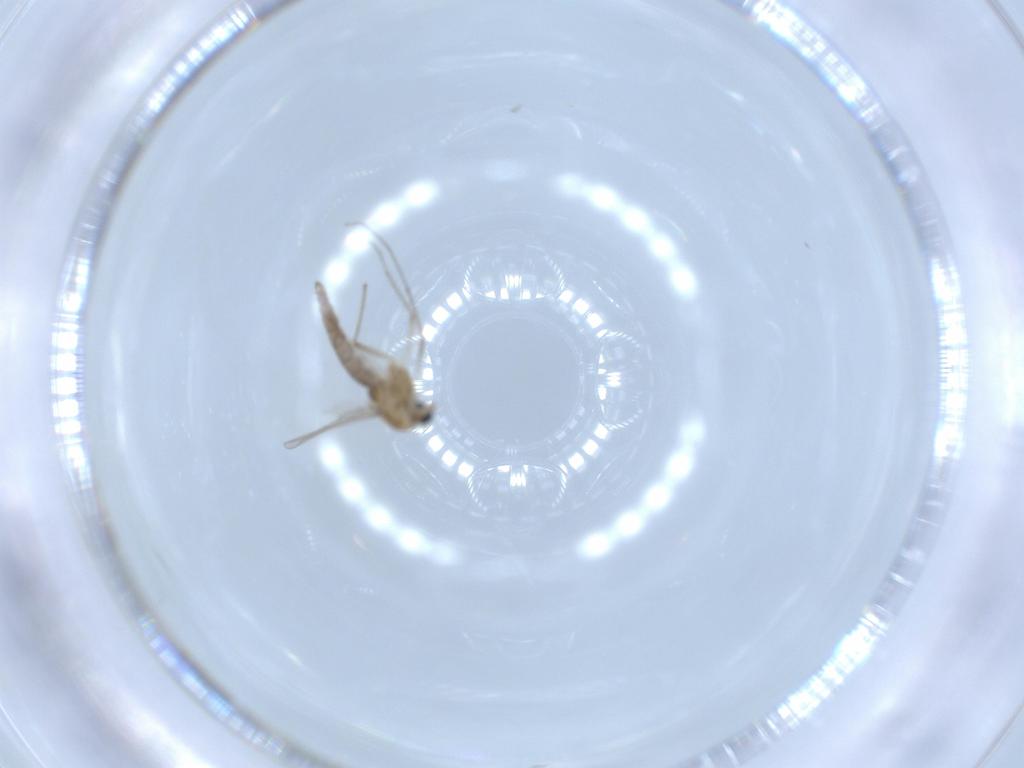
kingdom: Animalia
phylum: Arthropoda
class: Insecta
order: Diptera
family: Chironomidae
